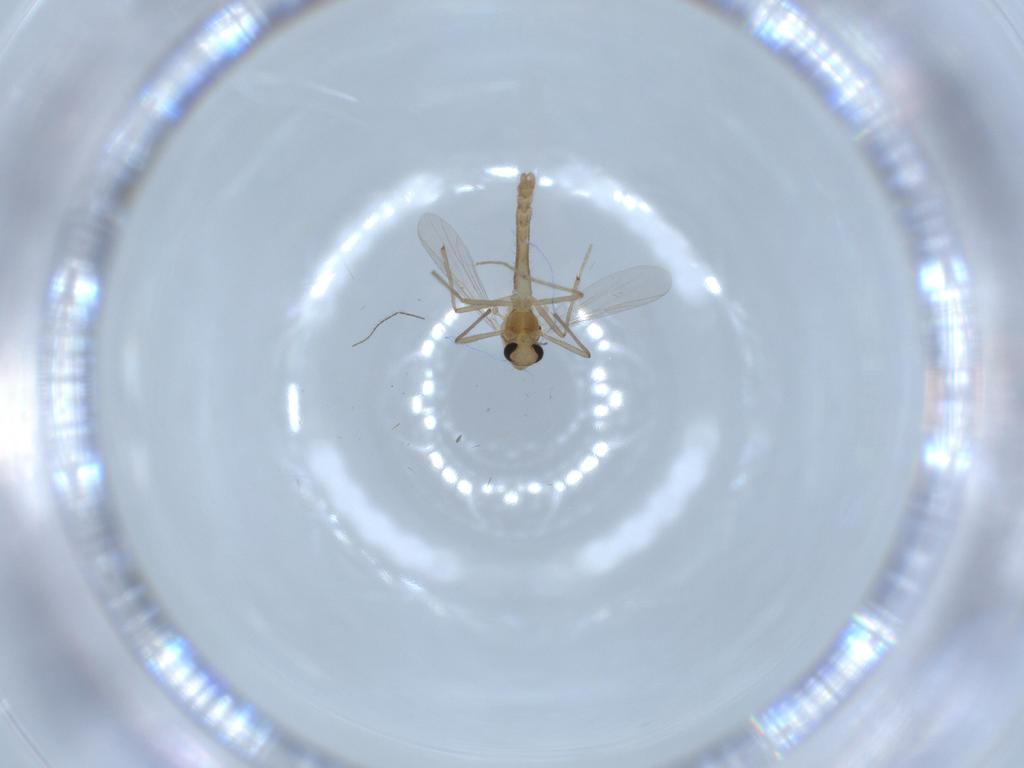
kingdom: Animalia
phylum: Arthropoda
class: Insecta
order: Diptera
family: Chironomidae
